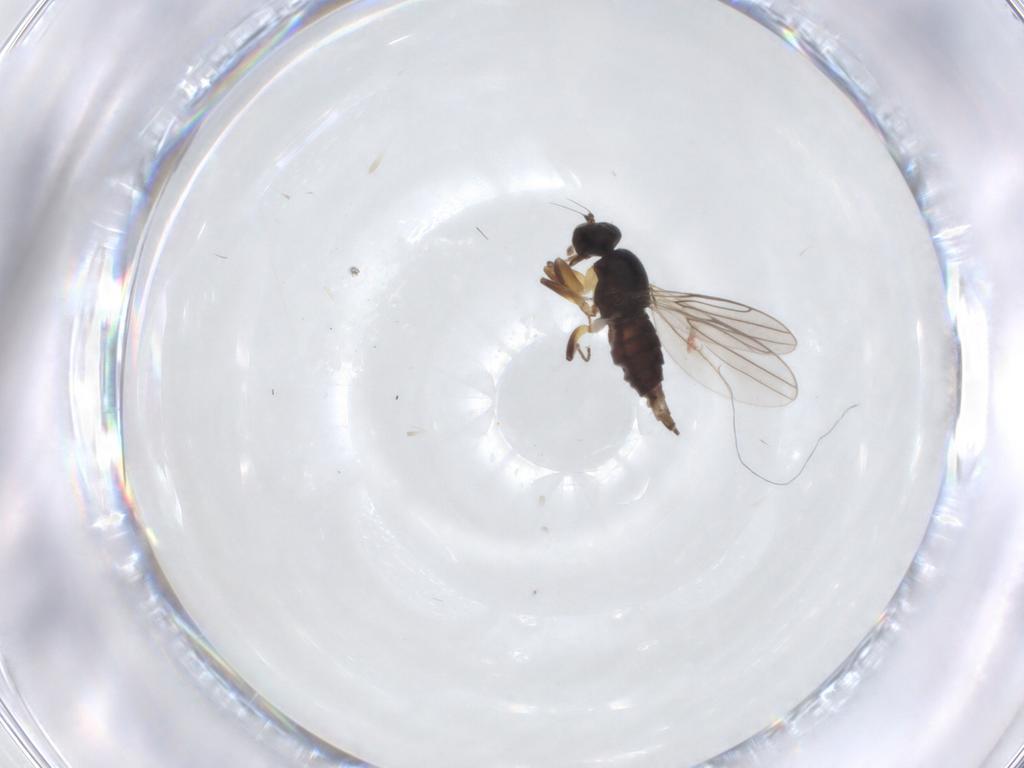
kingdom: Animalia
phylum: Arthropoda
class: Insecta
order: Diptera
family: Hybotidae
